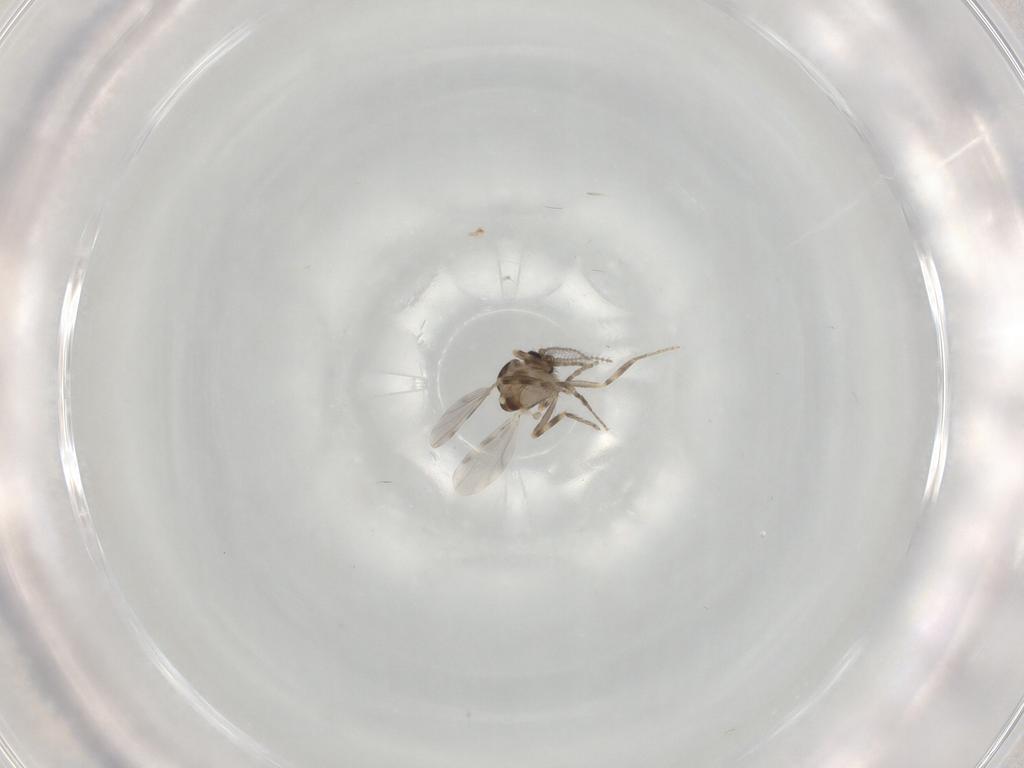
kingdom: Animalia
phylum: Arthropoda
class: Insecta
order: Diptera
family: Ceratopogonidae
